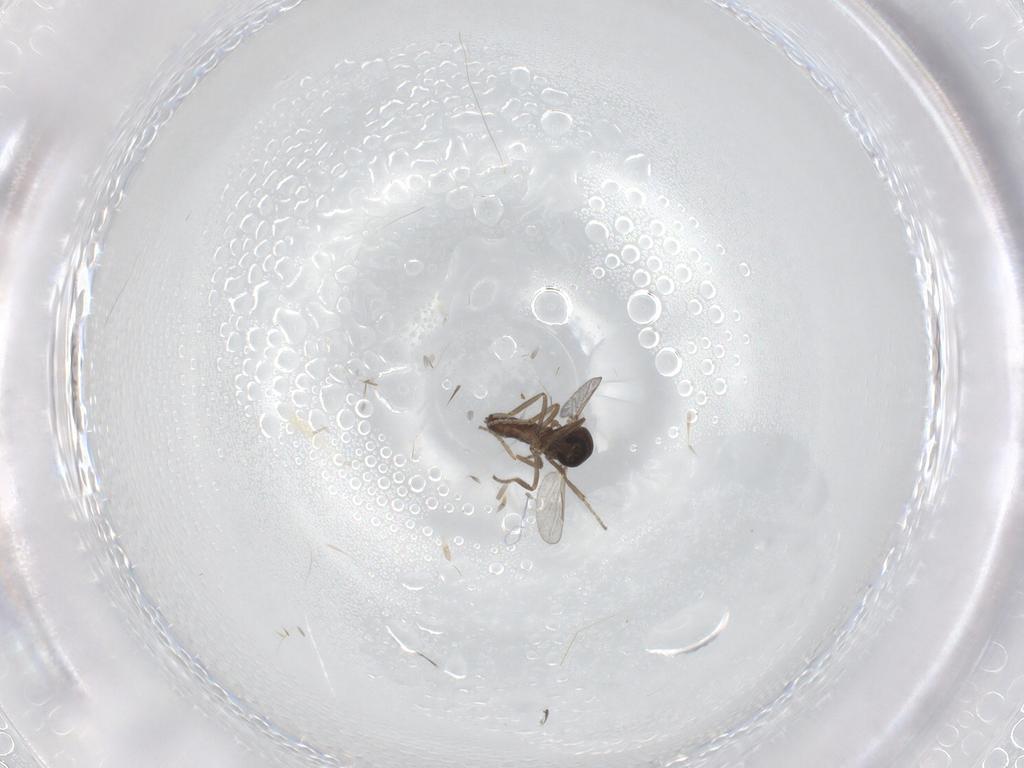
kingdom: Animalia
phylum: Arthropoda
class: Insecta
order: Diptera
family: Ceratopogonidae
